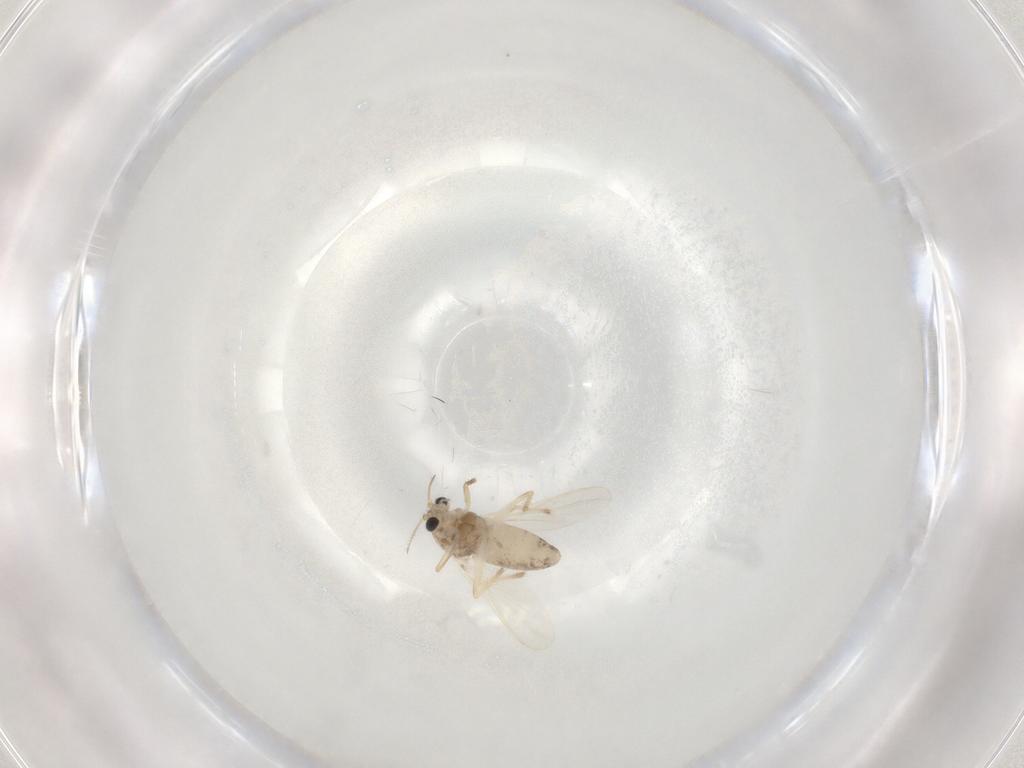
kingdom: Animalia
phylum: Arthropoda
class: Insecta
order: Diptera
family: Chironomidae
